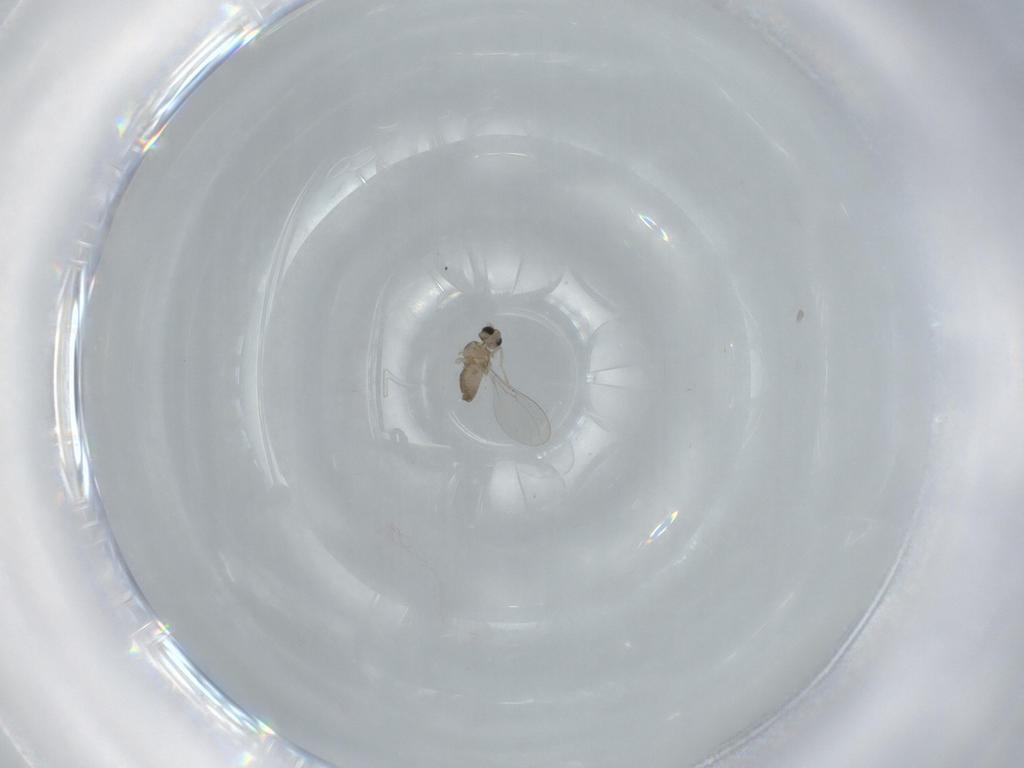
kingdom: Animalia
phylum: Arthropoda
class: Insecta
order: Diptera
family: Cecidomyiidae
